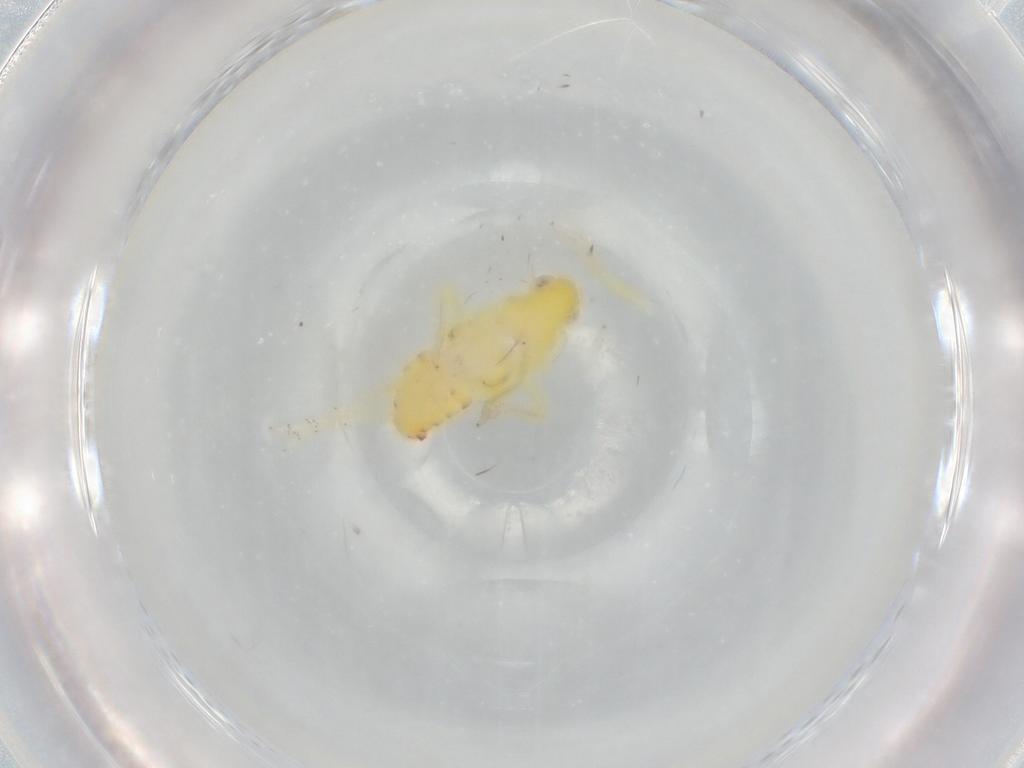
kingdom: Animalia
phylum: Arthropoda
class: Insecta
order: Hemiptera
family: Tropiduchidae
